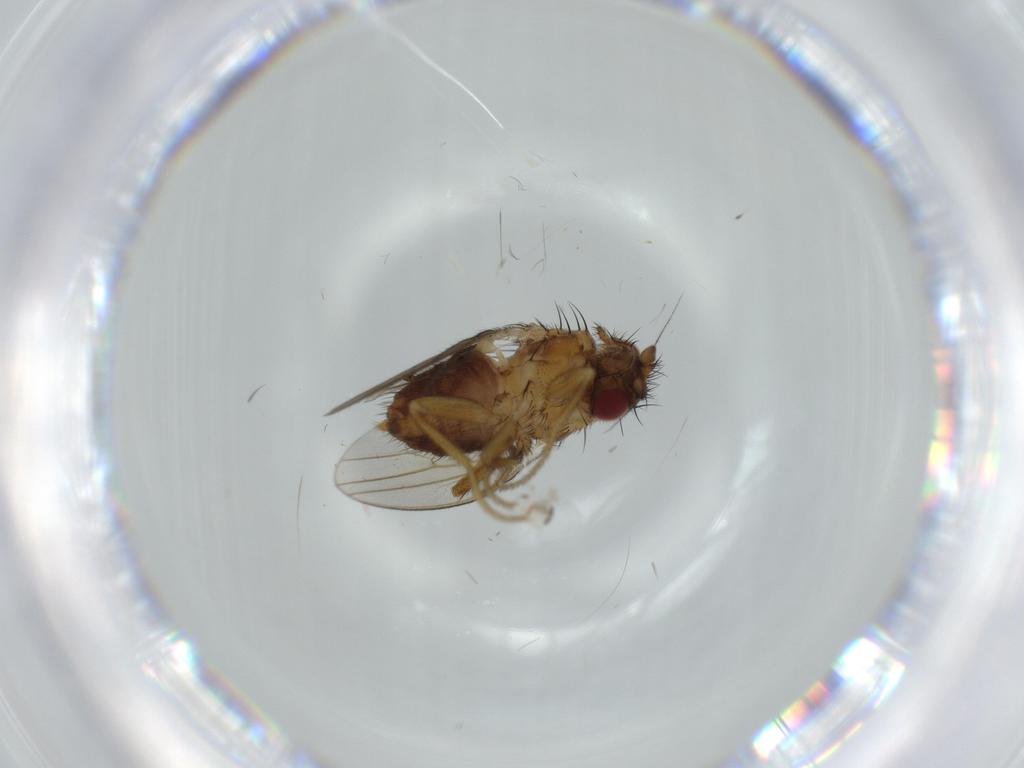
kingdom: Animalia
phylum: Arthropoda
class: Insecta
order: Diptera
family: Milichiidae
